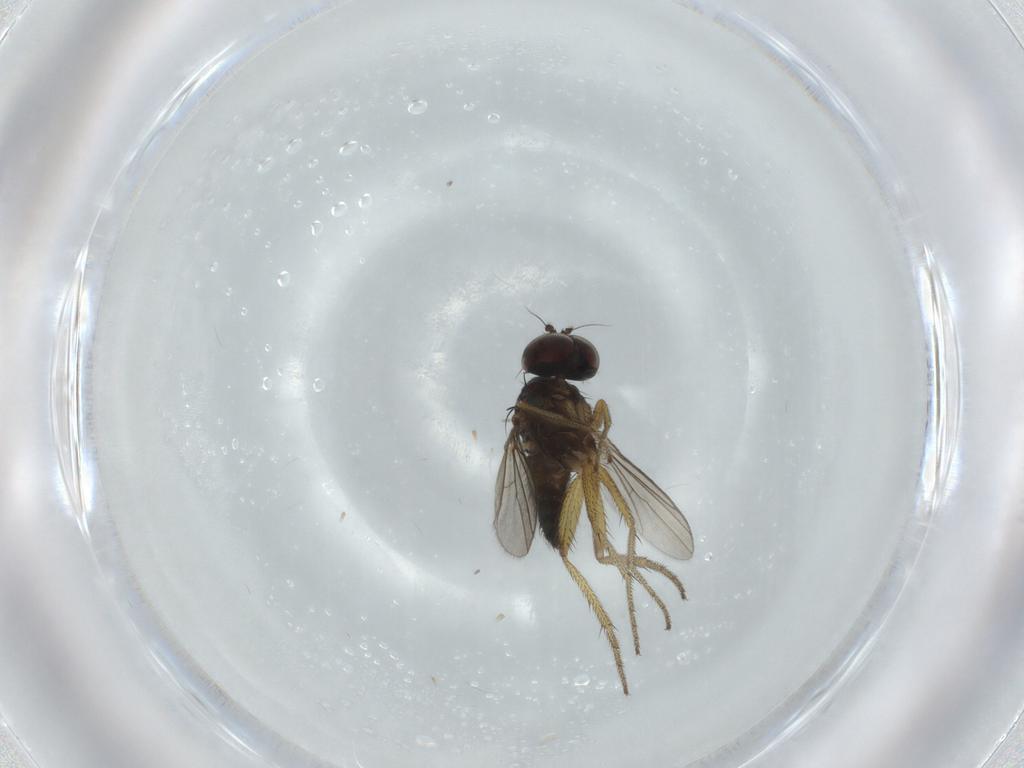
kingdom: Animalia
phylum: Arthropoda
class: Insecta
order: Diptera
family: Dolichopodidae
